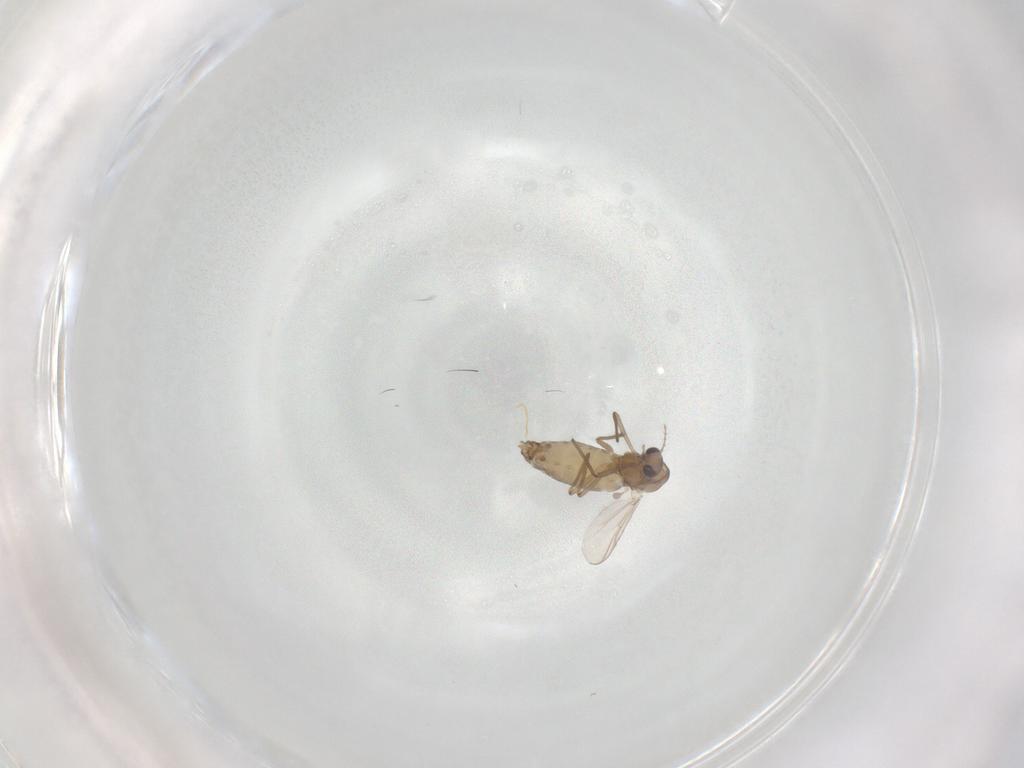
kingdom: Animalia
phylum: Arthropoda
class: Insecta
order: Diptera
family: Chironomidae
